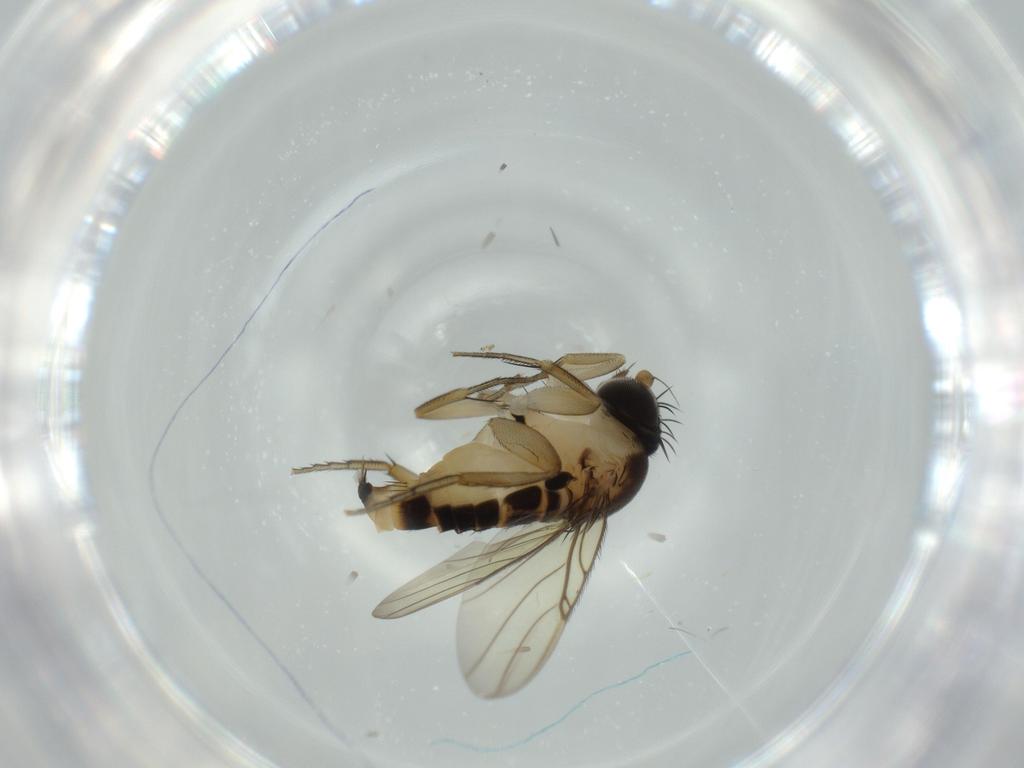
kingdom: Animalia
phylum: Arthropoda
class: Insecta
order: Diptera
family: Phoridae
